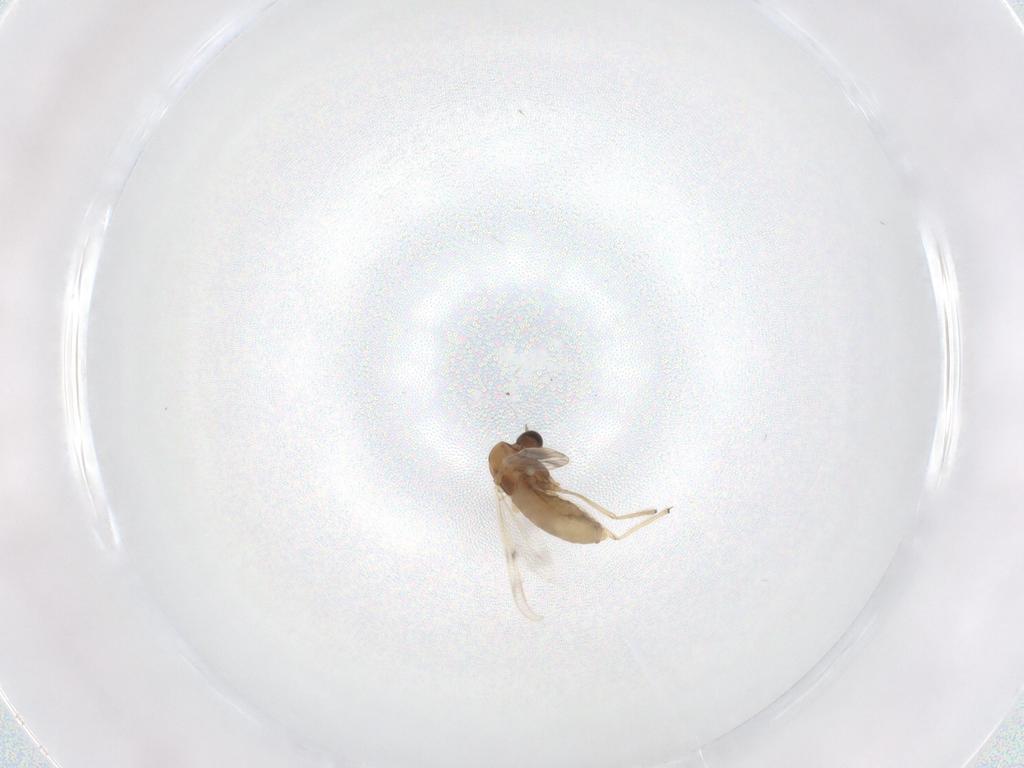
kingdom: Animalia
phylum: Arthropoda
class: Insecta
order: Diptera
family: Chironomidae
